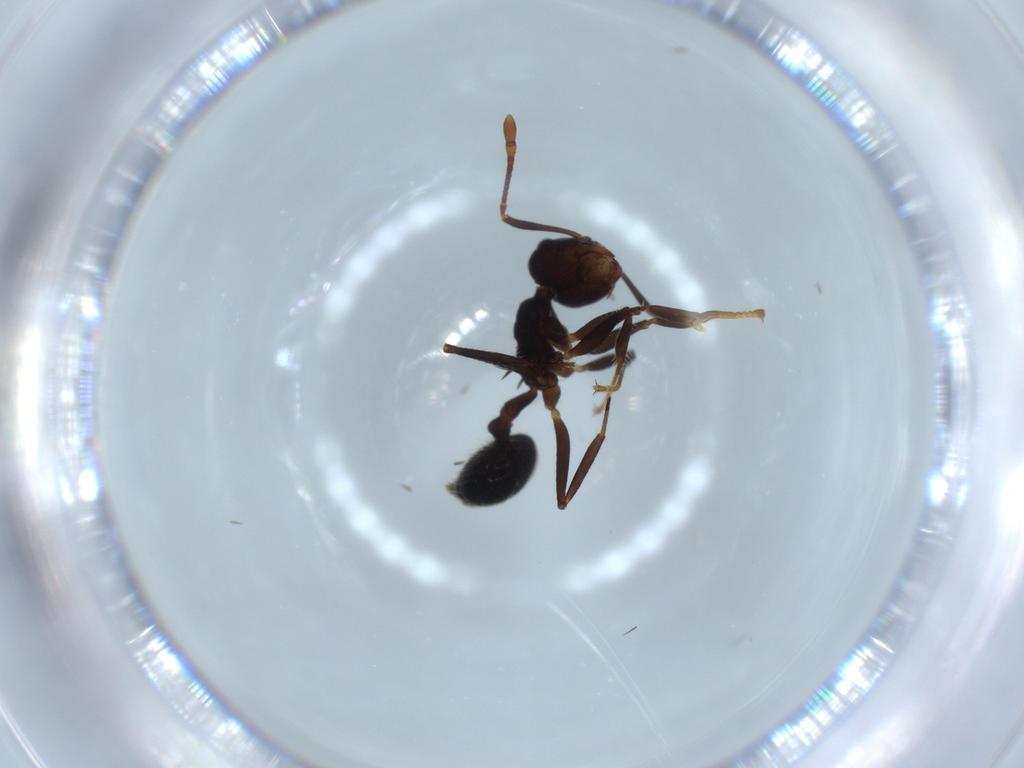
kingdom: Animalia
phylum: Arthropoda
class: Insecta
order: Hymenoptera
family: Formicidae
